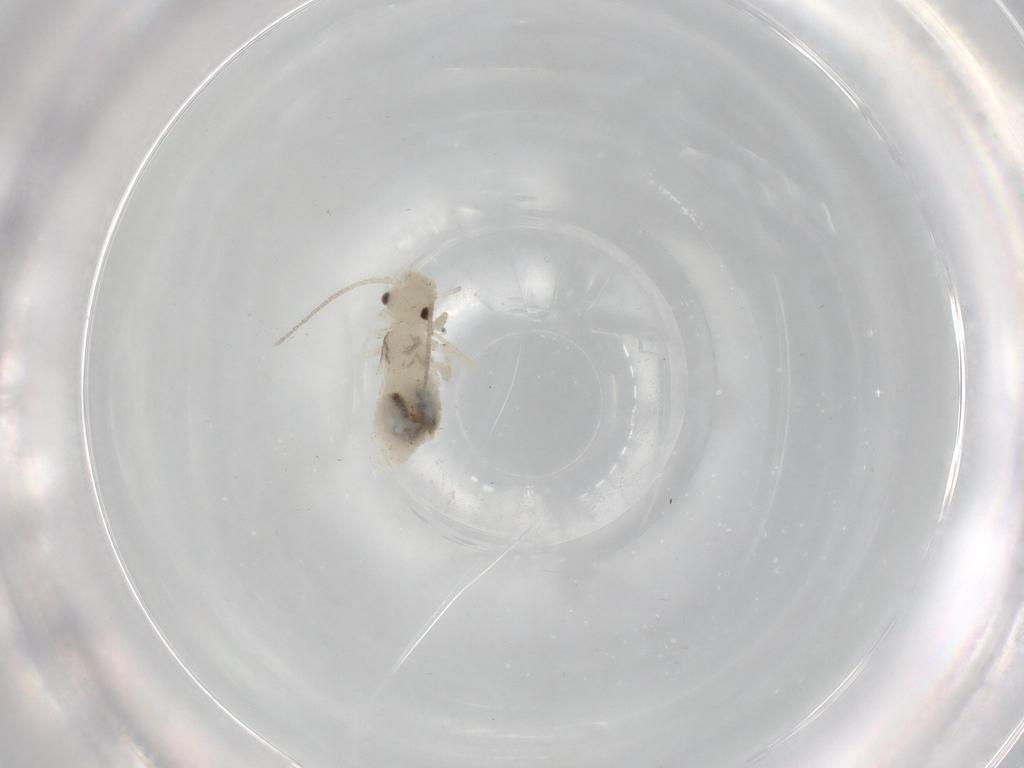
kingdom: Animalia
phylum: Arthropoda
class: Insecta
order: Psocodea
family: Caeciliusidae
